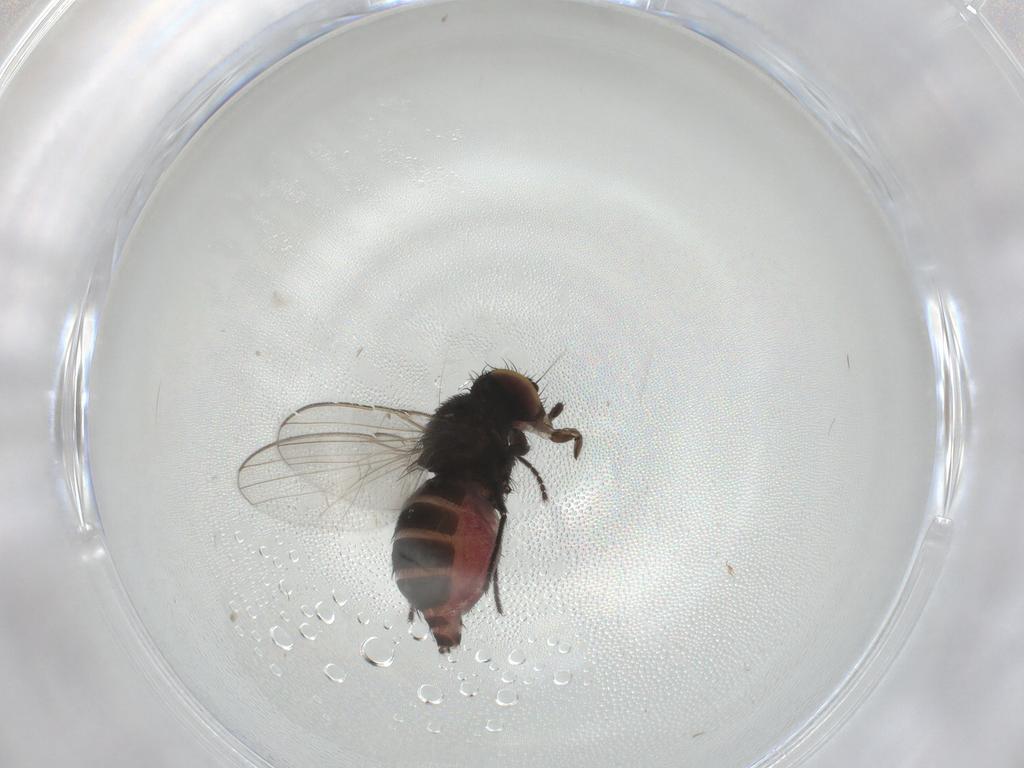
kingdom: Animalia
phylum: Arthropoda
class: Insecta
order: Diptera
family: Milichiidae
